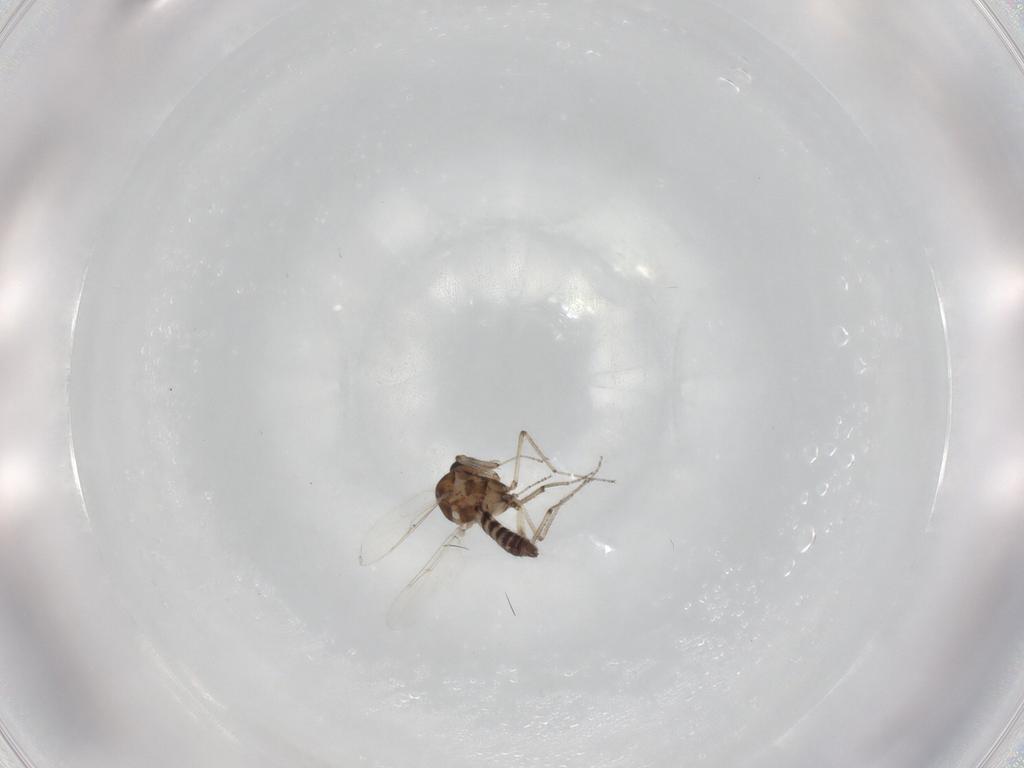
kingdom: Animalia
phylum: Arthropoda
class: Insecta
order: Diptera
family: Ceratopogonidae
